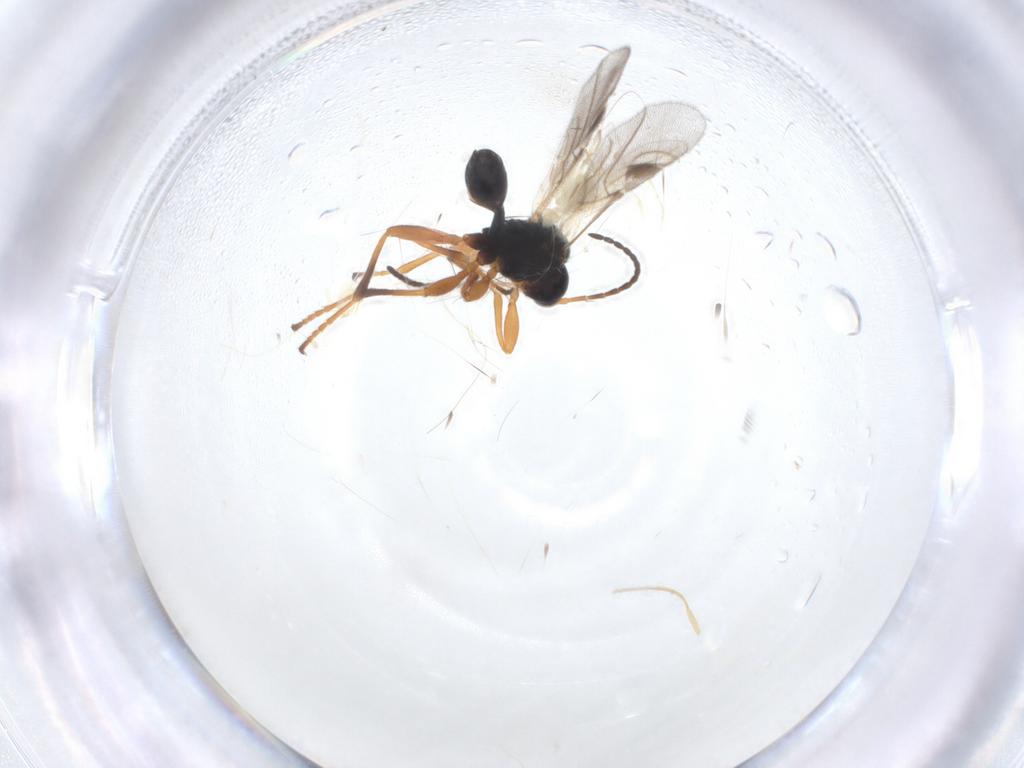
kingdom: Animalia
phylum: Arthropoda
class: Insecta
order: Hymenoptera
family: Braconidae
